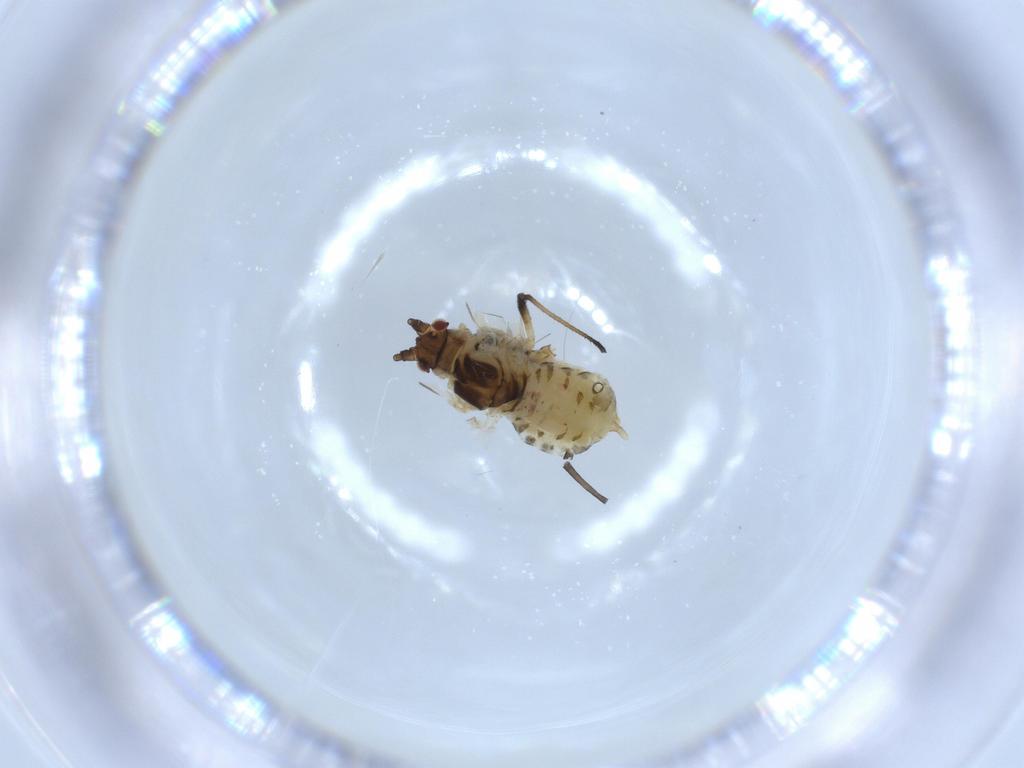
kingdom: Animalia
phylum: Arthropoda
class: Insecta
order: Hemiptera
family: Aphididae
